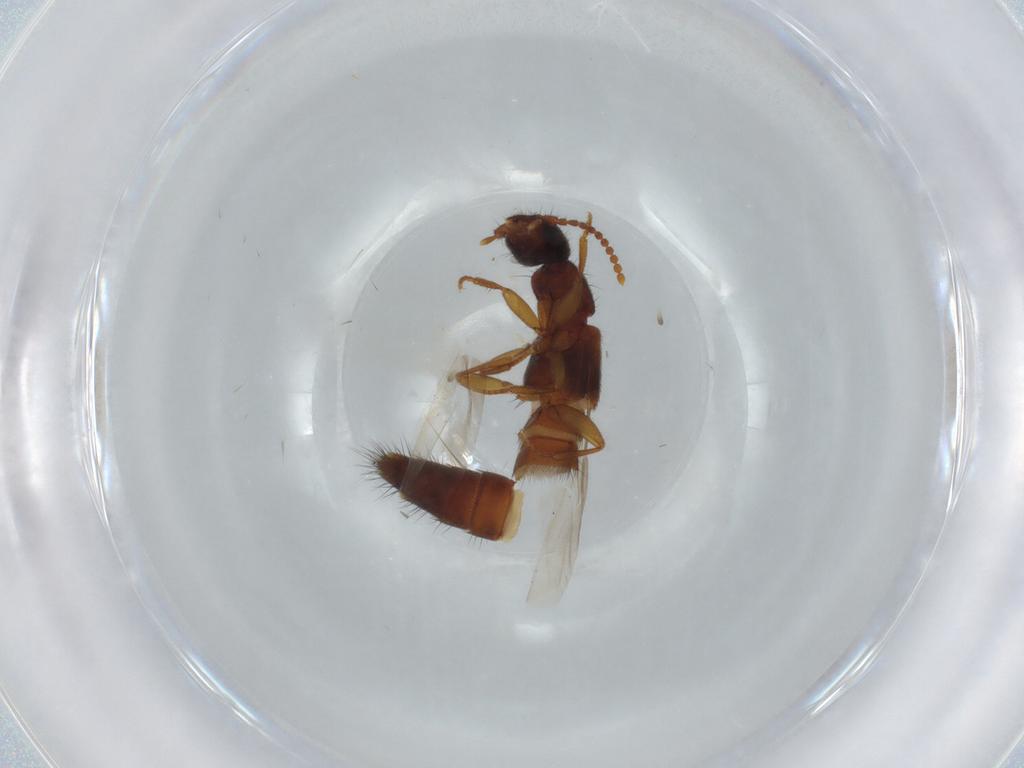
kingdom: Animalia
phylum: Arthropoda
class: Insecta
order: Coleoptera
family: Staphylinidae
